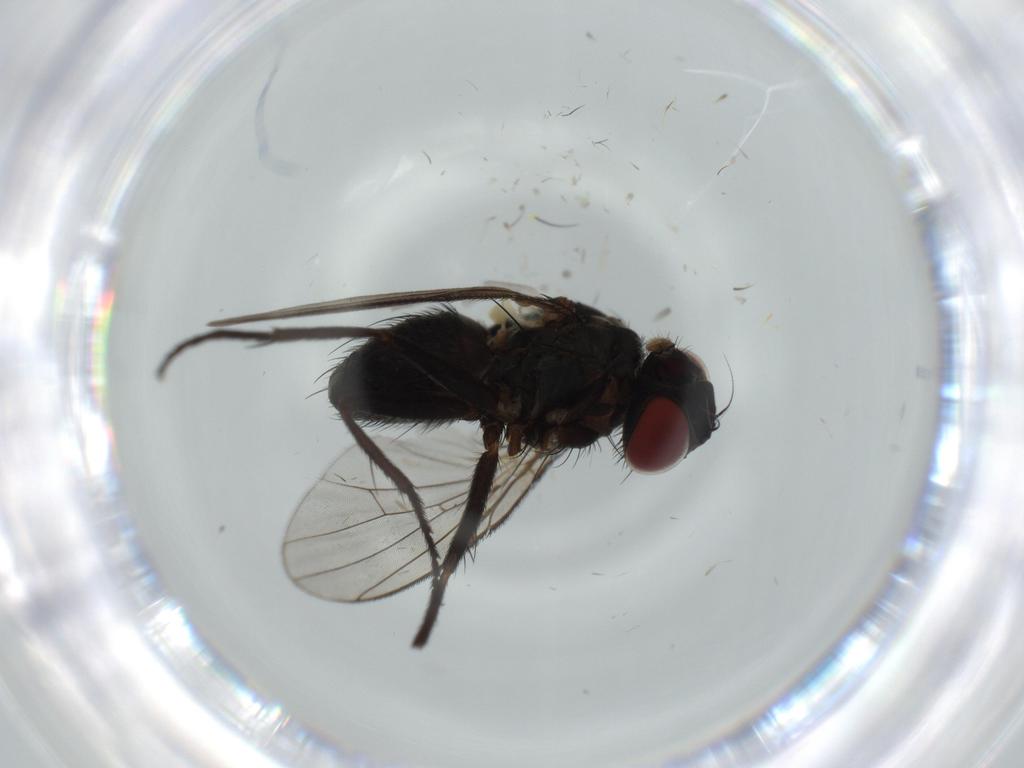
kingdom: Animalia
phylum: Arthropoda
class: Insecta
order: Diptera
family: Muscidae
